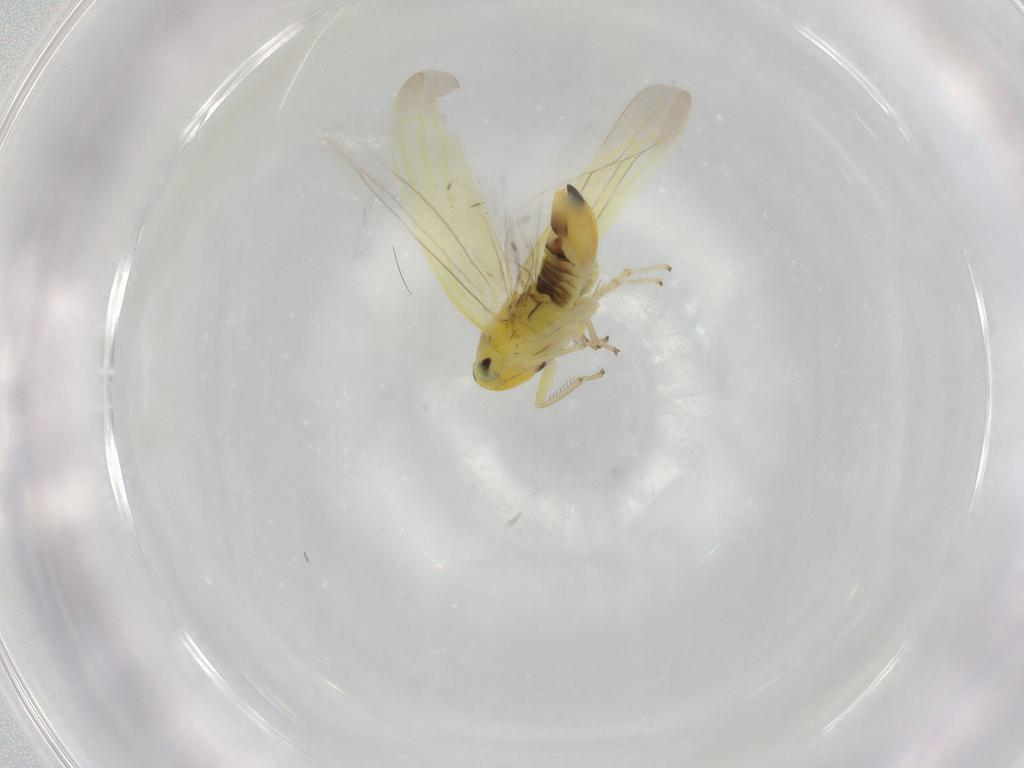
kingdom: Animalia
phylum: Arthropoda
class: Insecta
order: Hemiptera
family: Cicadellidae
